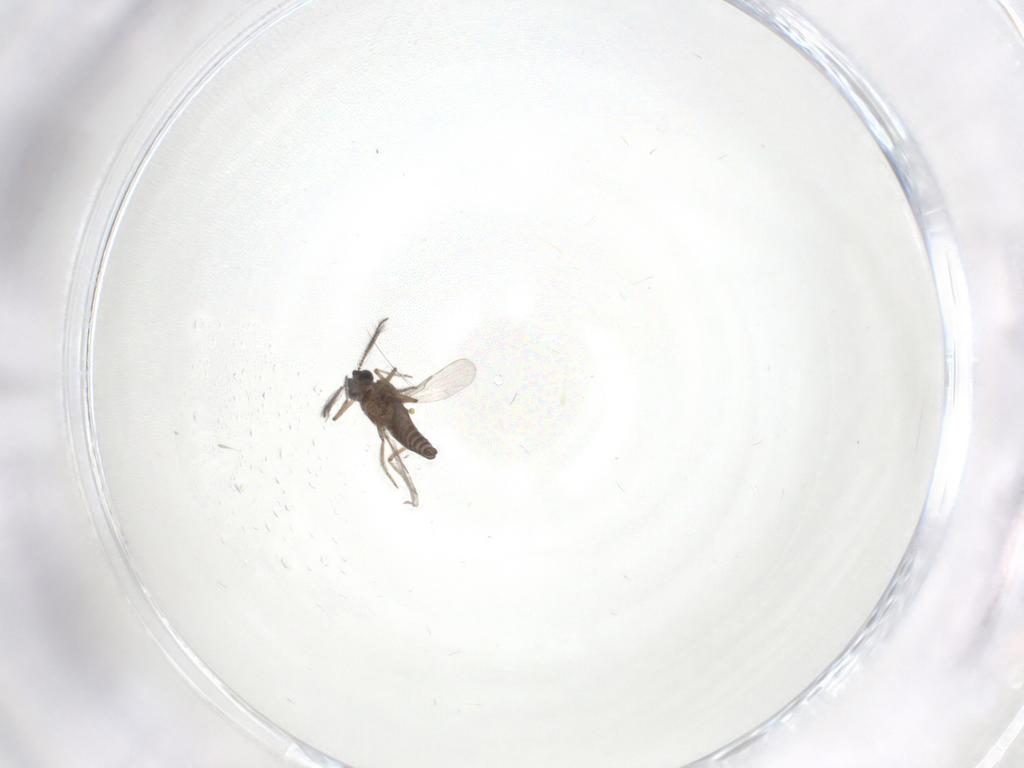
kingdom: Animalia
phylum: Arthropoda
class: Insecta
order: Diptera
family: Ceratopogonidae
